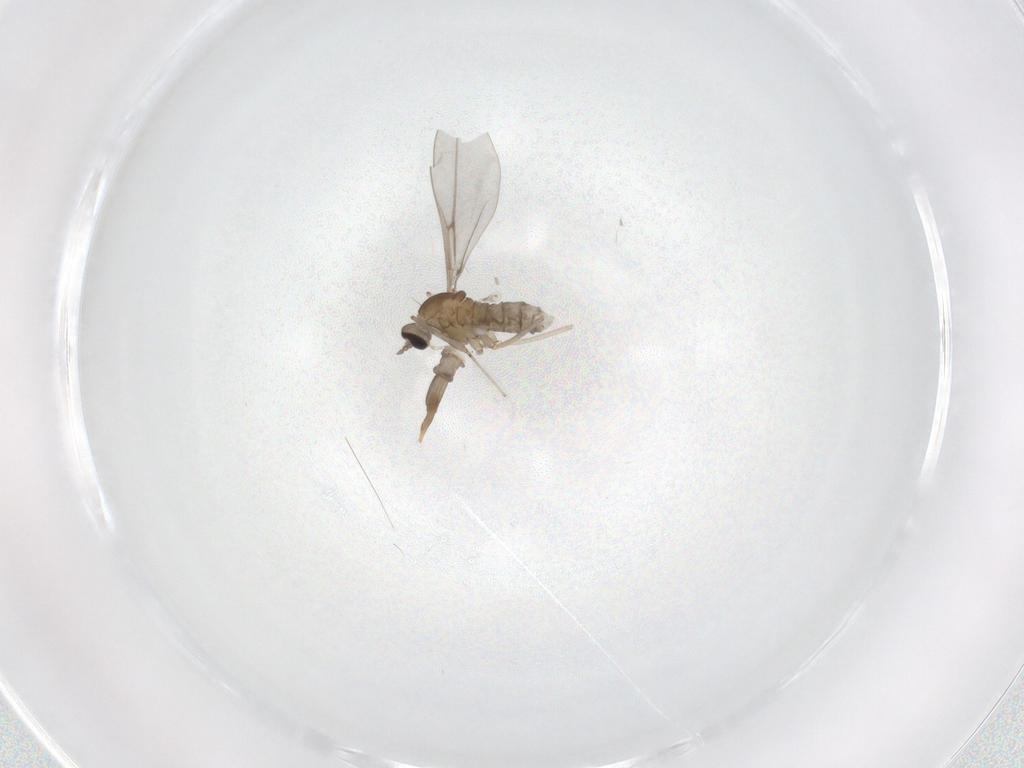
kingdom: Animalia
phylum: Arthropoda
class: Insecta
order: Diptera
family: Cecidomyiidae
